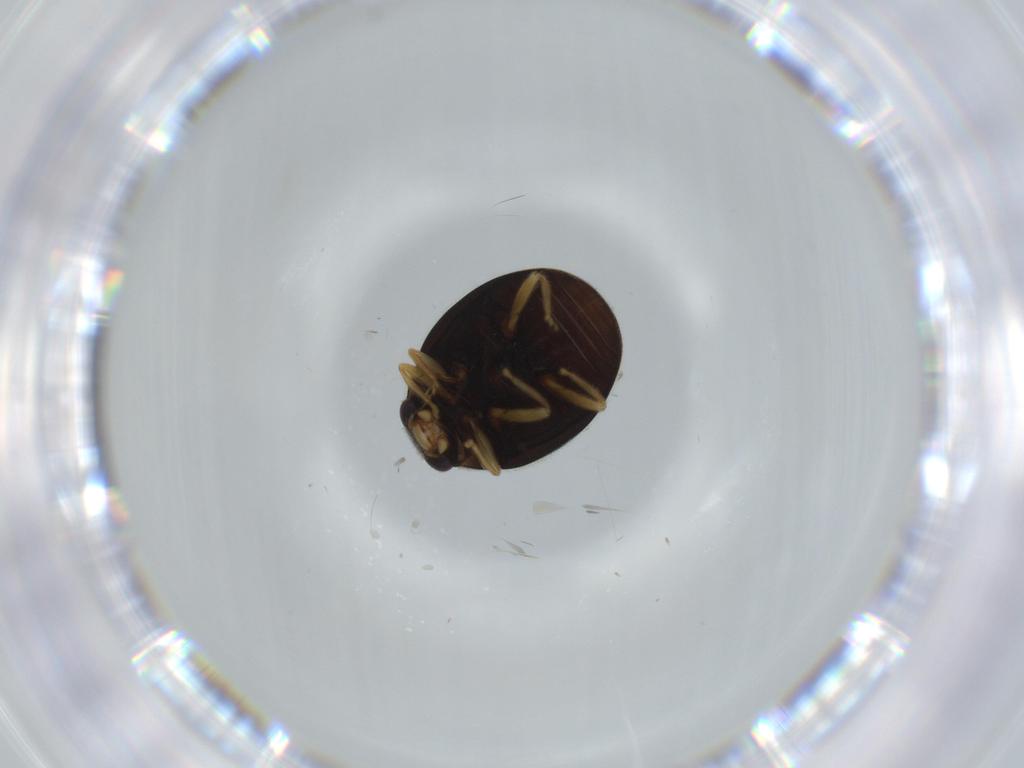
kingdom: Animalia
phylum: Arthropoda
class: Insecta
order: Coleoptera
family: Coccinellidae
